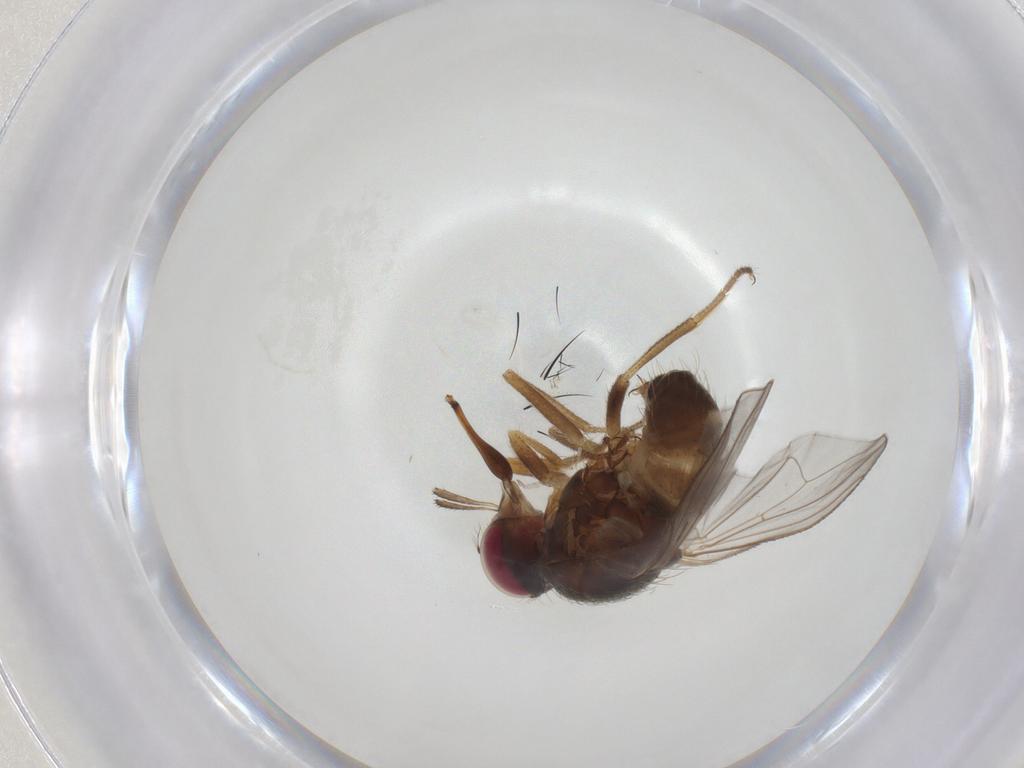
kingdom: Animalia
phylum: Arthropoda
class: Insecta
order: Diptera
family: Muscidae
